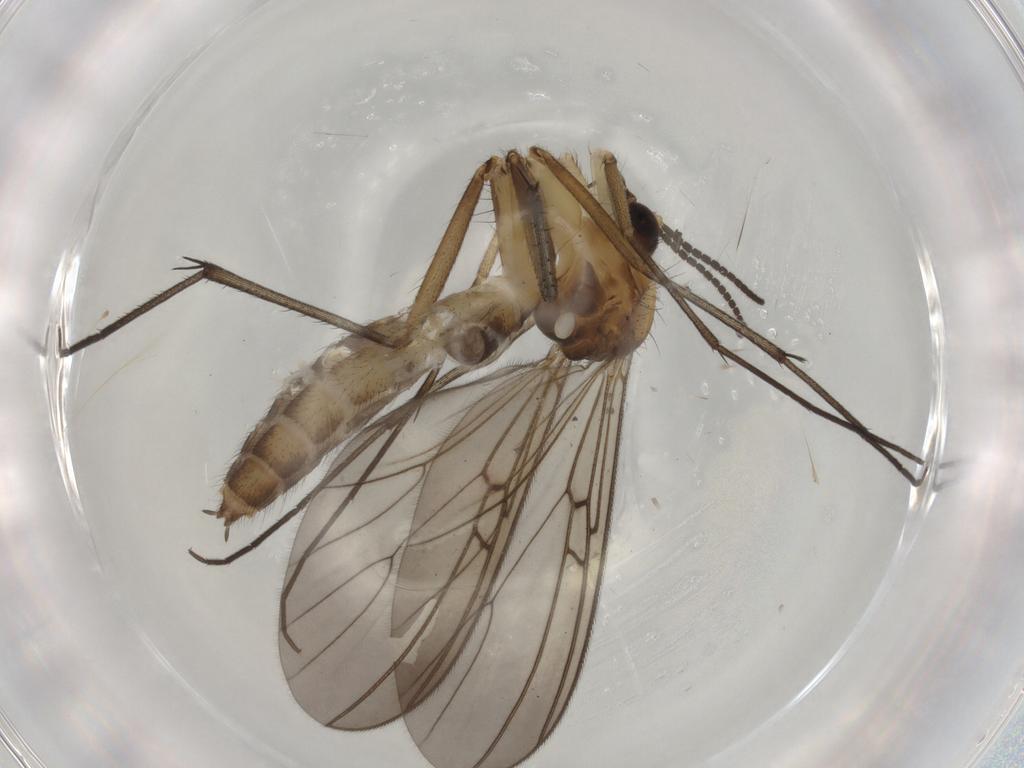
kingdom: Animalia
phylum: Arthropoda
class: Insecta
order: Diptera
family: Mycetophilidae
